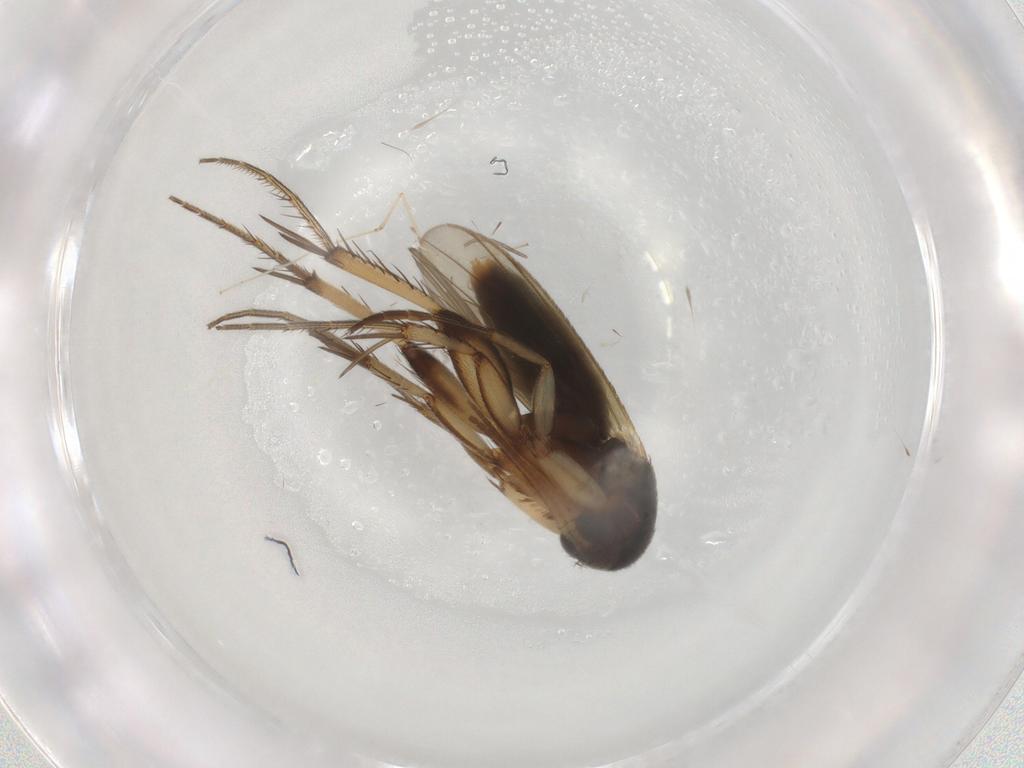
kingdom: Animalia
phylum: Arthropoda
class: Insecta
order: Diptera
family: Mycetophilidae
